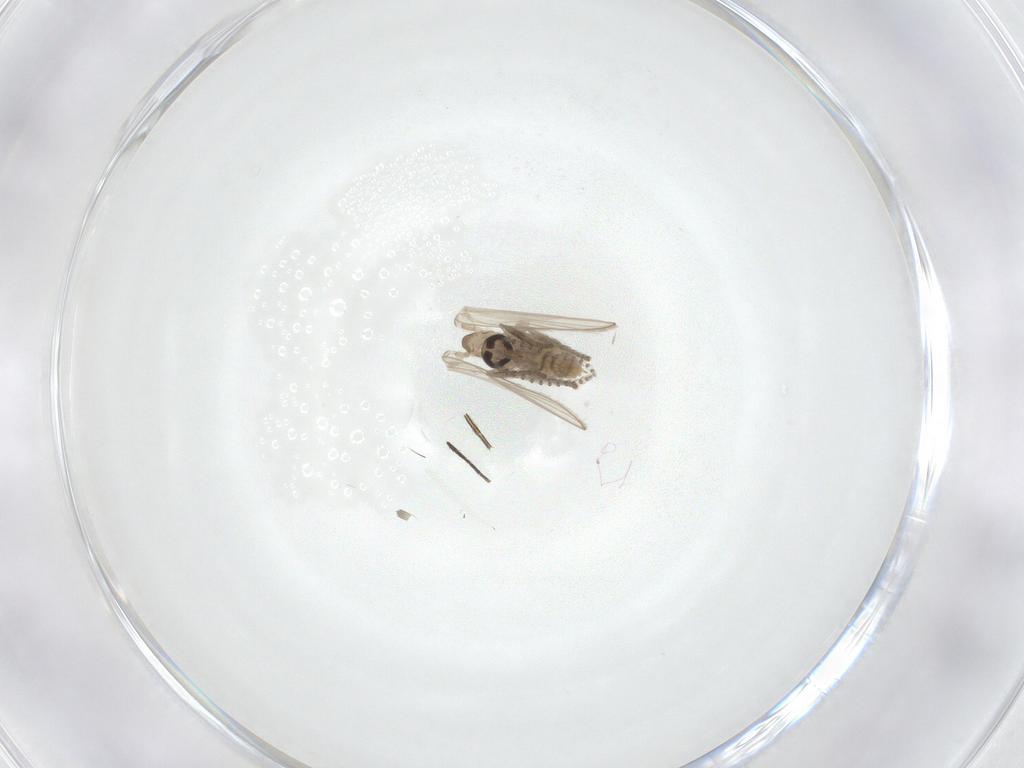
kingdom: Animalia
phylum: Arthropoda
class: Insecta
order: Diptera
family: Psychodidae
